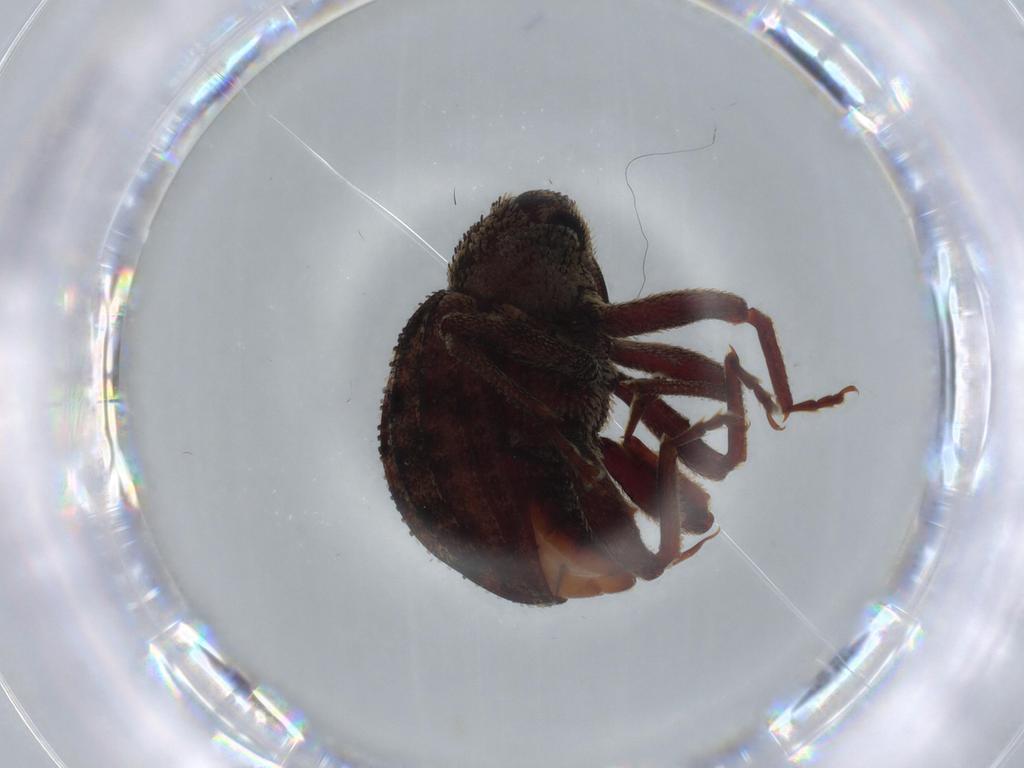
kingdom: Animalia
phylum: Arthropoda
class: Insecta
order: Coleoptera
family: Curculionidae
